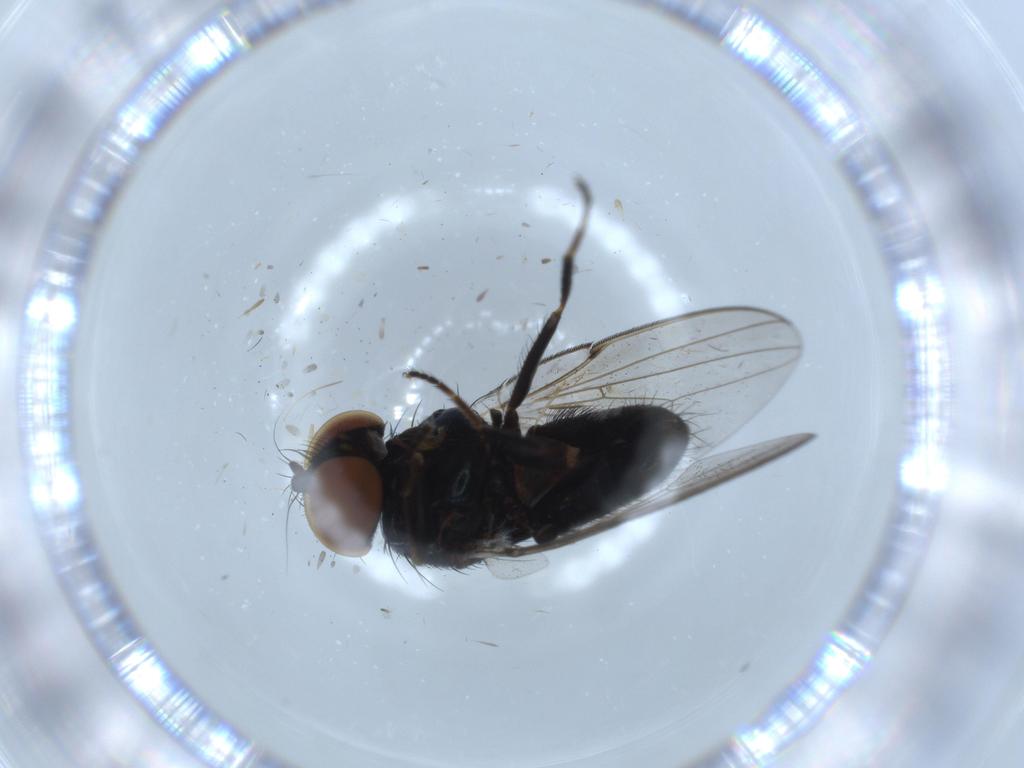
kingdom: Animalia
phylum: Arthropoda
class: Insecta
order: Diptera
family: Milichiidae
